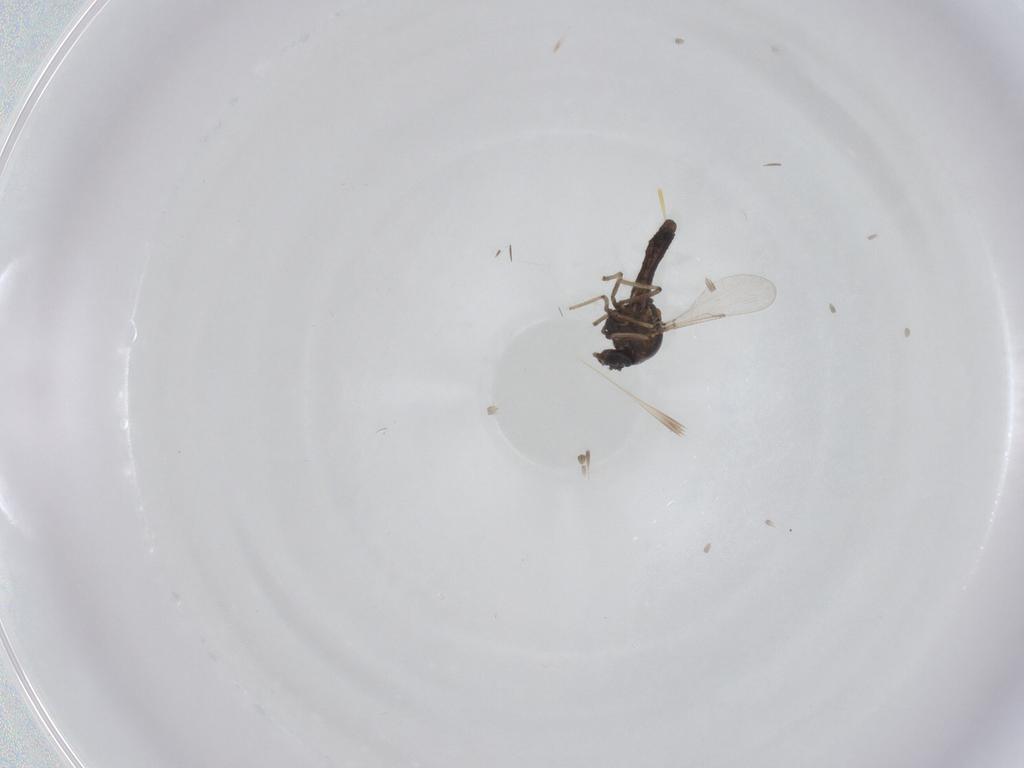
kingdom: Animalia
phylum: Arthropoda
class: Insecta
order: Diptera
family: Ceratopogonidae
